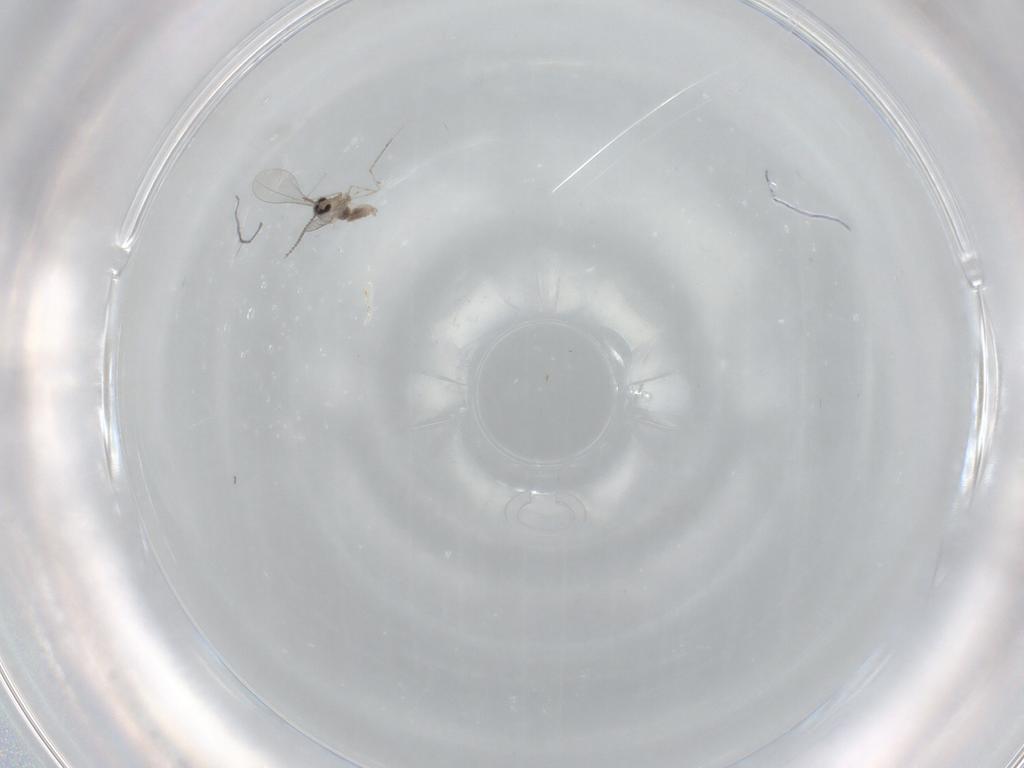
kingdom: Animalia
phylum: Arthropoda
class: Insecta
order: Diptera
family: Cecidomyiidae
